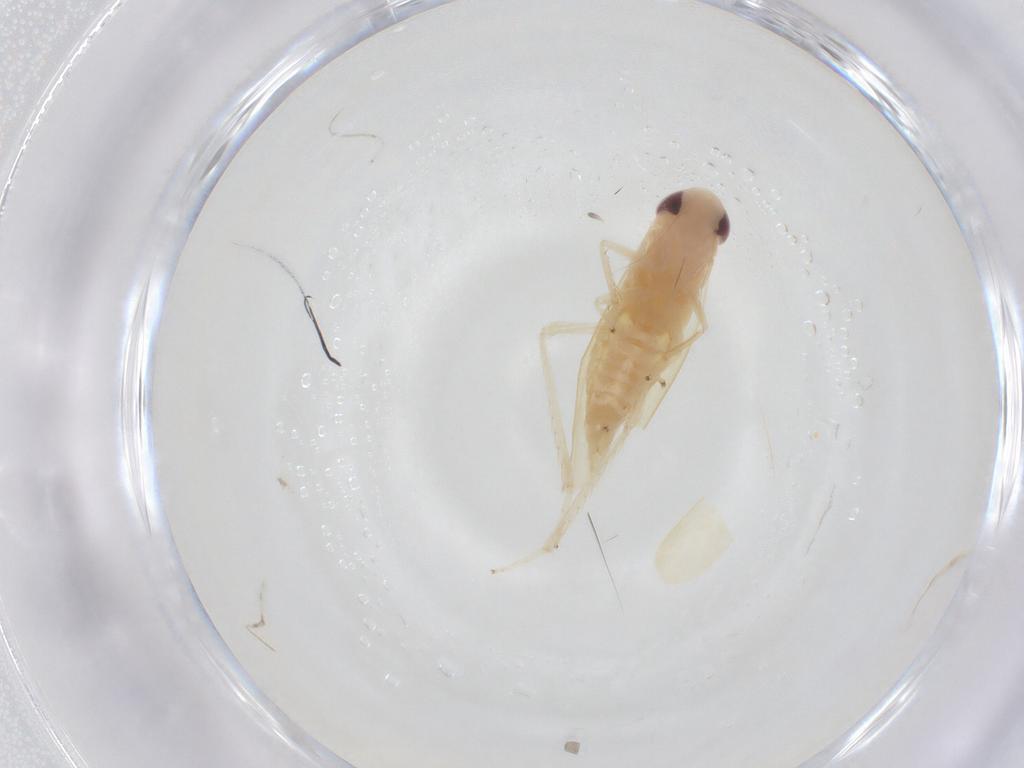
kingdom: Animalia
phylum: Arthropoda
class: Insecta
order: Hemiptera
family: Cicadellidae
